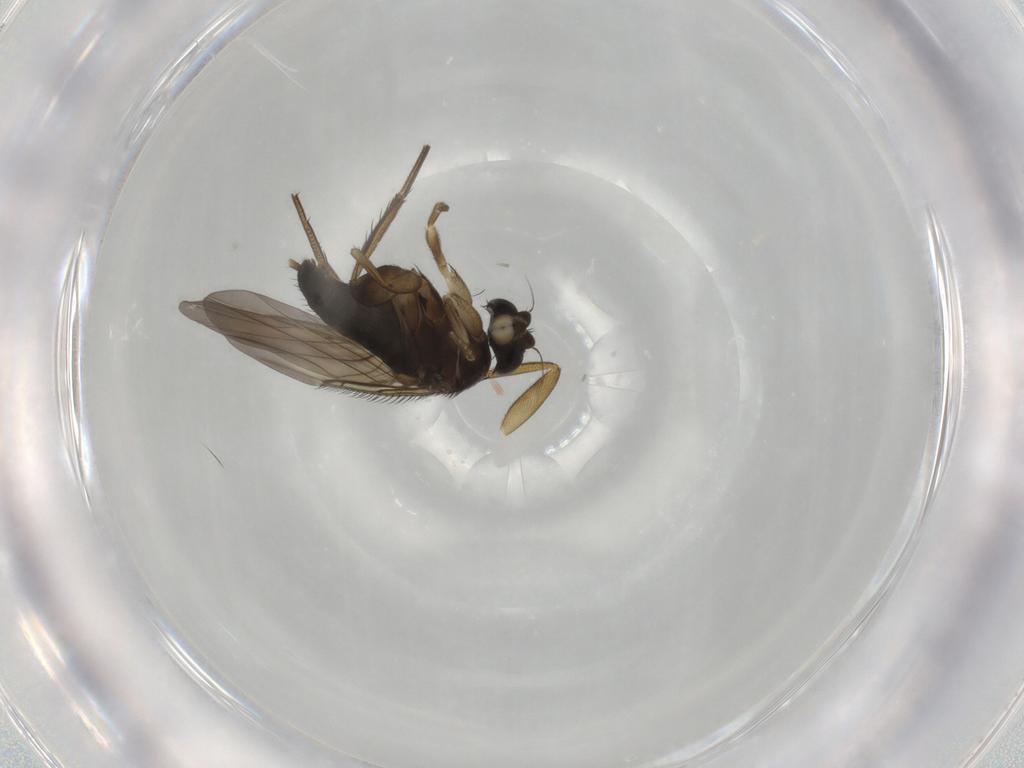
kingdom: Animalia
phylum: Arthropoda
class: Insecta
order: Diptera
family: Phoridae
